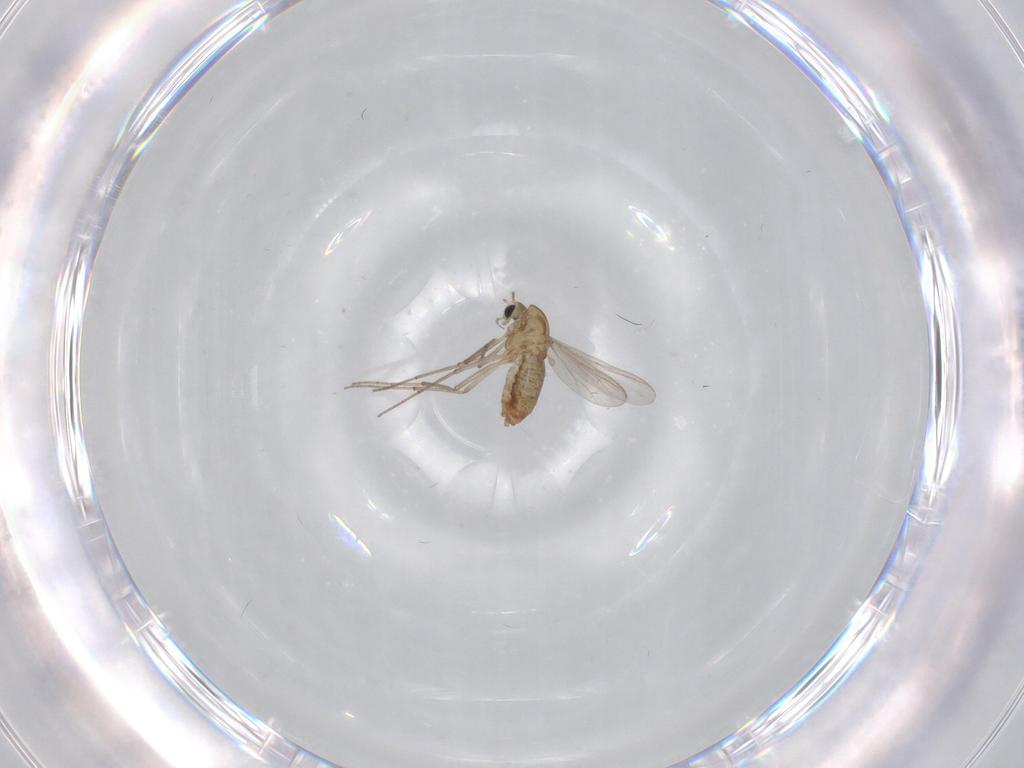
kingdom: Animalia
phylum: Arthropoda
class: Insecta
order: Diptera
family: Chironomidae
